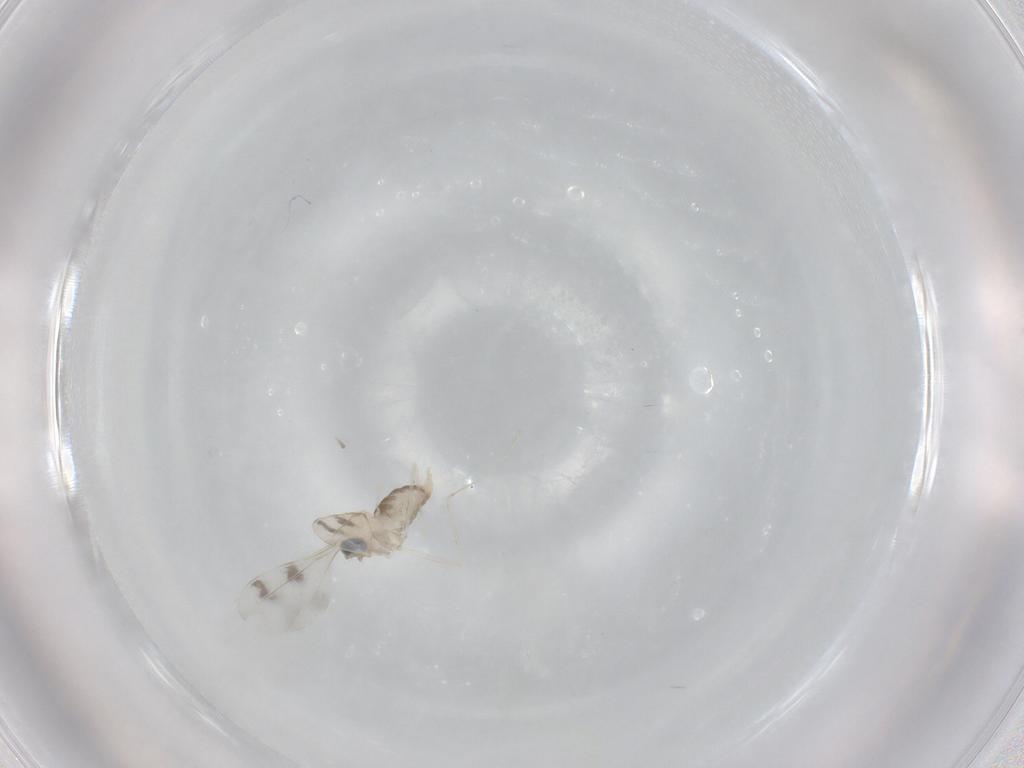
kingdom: Animalia
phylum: Arthropoda
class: Insecta
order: Diptera
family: Cecidomyiidae
